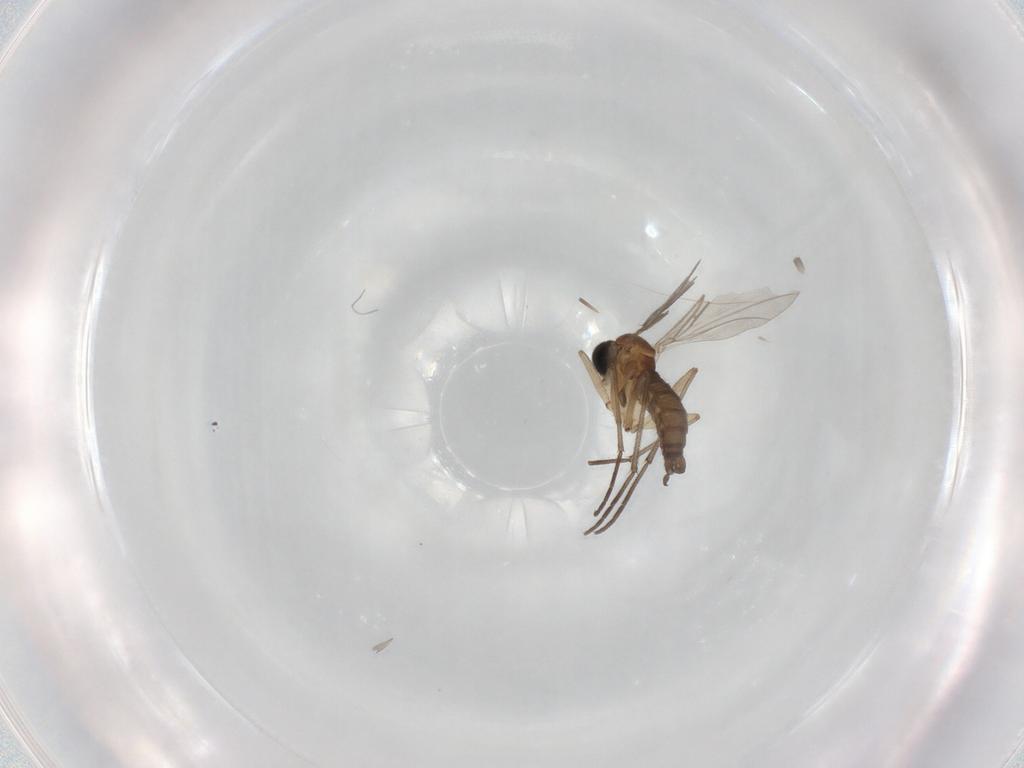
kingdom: Animalia
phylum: Arthropoda
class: Insecta
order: Diptera
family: Sciaridae
